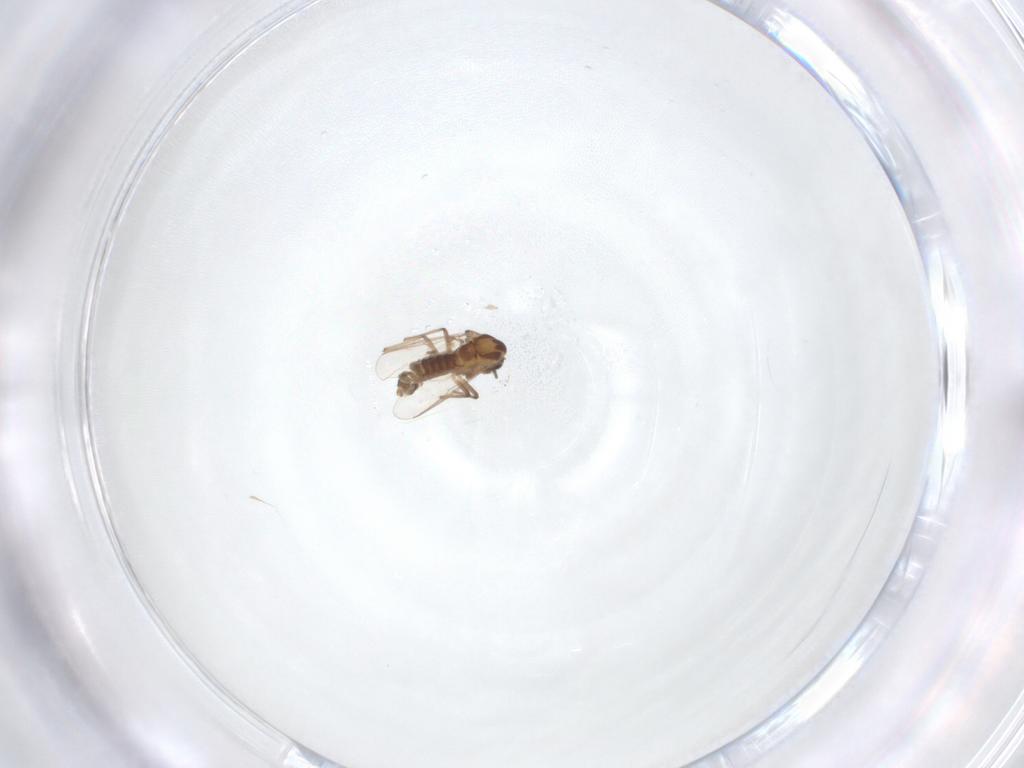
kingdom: Animalia
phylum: Arthropoda
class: Insecta
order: Diptera
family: Chironomidae
